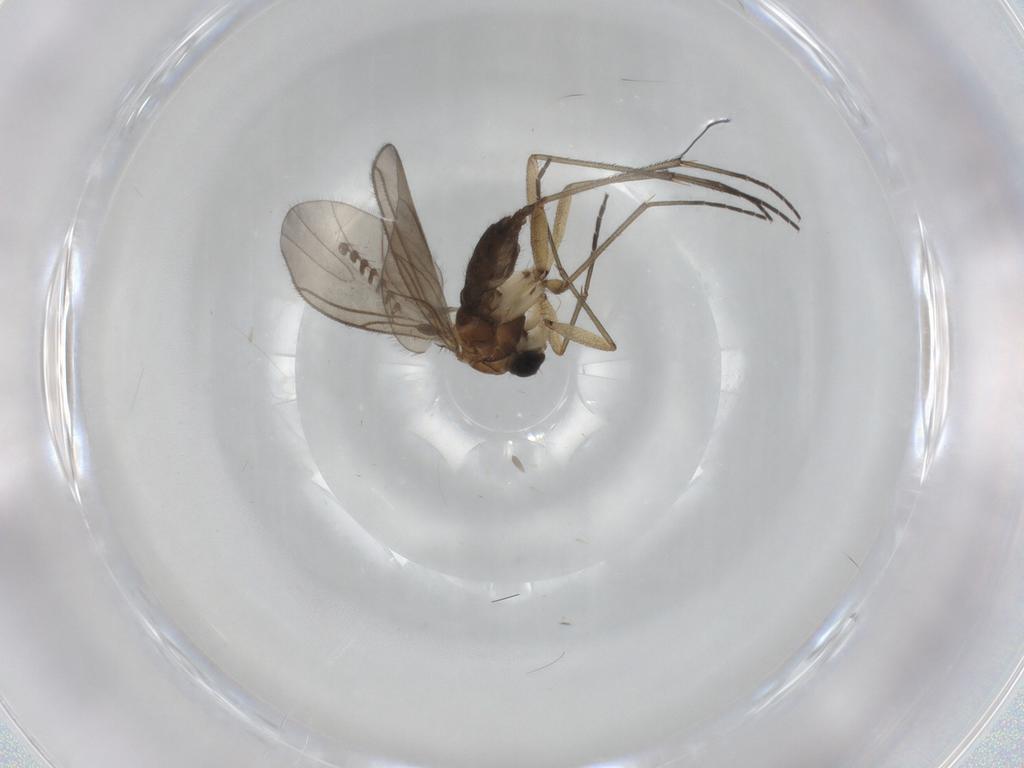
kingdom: Animalia
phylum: Arthropoda
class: Insecta
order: Diptera
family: Sciaridae
